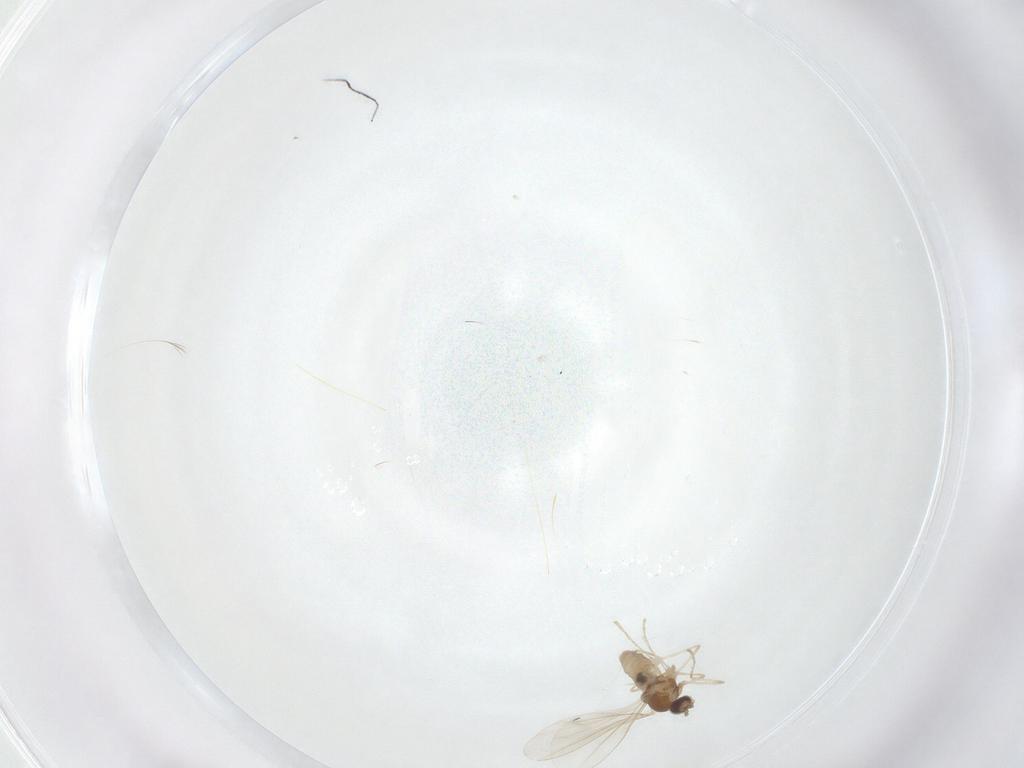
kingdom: Animalia
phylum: Arthropoda
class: Insecta
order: Diptera
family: Cecidomyiidae
